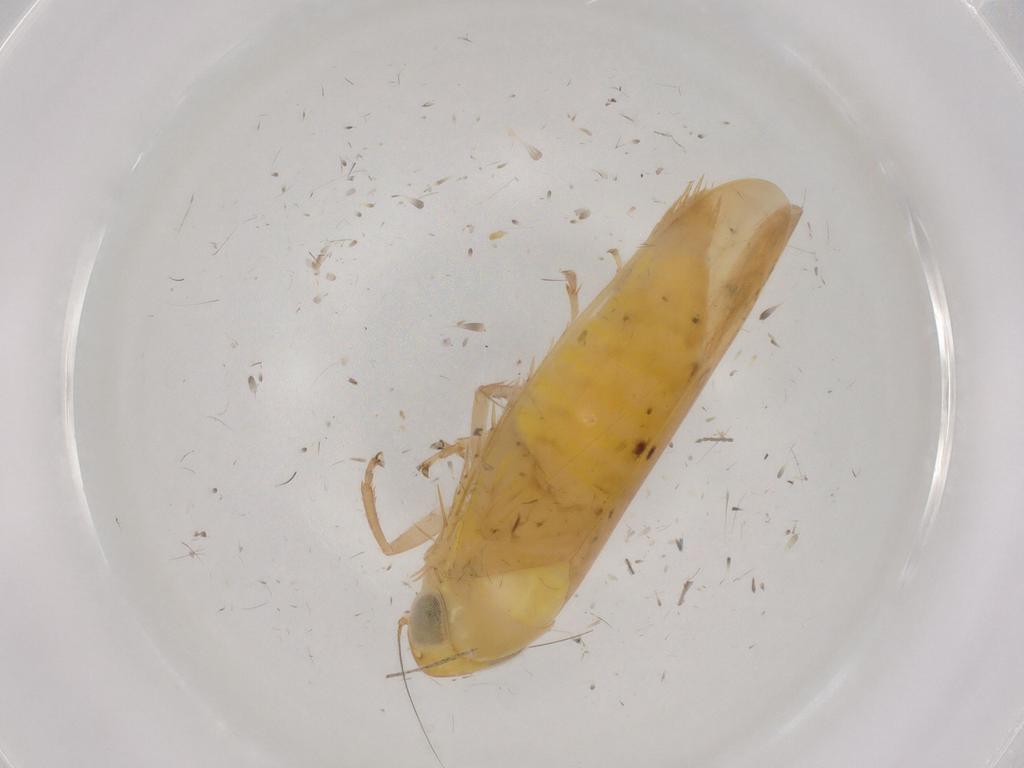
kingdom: Animalia
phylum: Arthropoda
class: Insecta
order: Hemiptera
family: Cicadellidae
